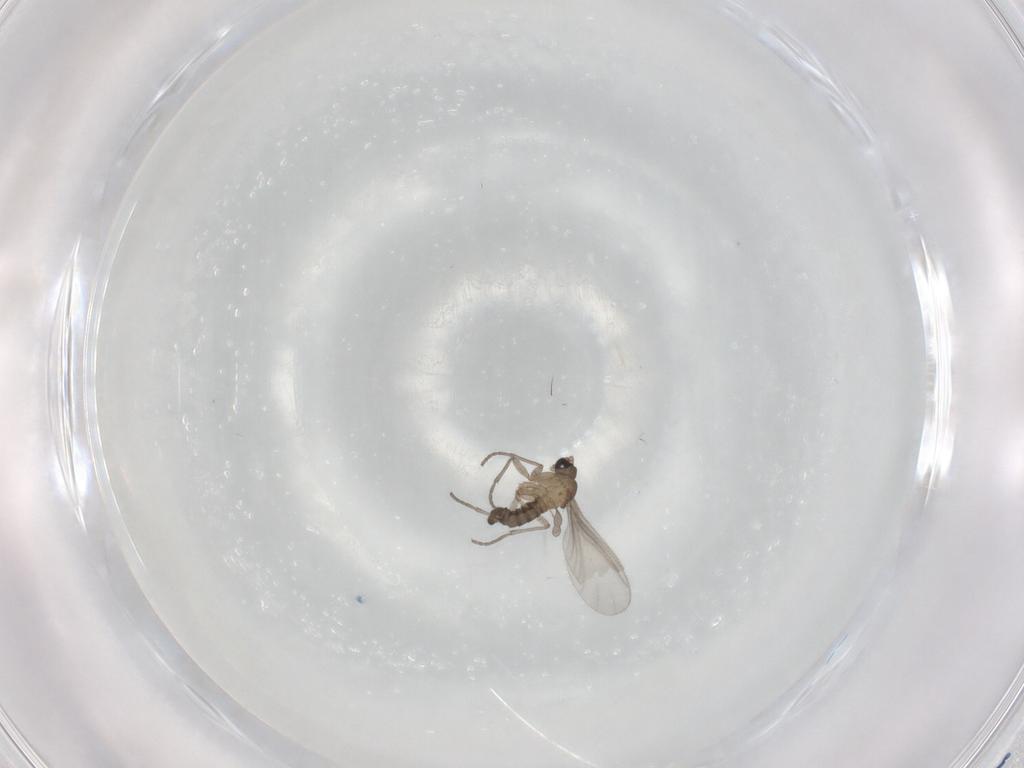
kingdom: Animalia
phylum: Arthropoda
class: Insecta
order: Diptera
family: Sciaridae
